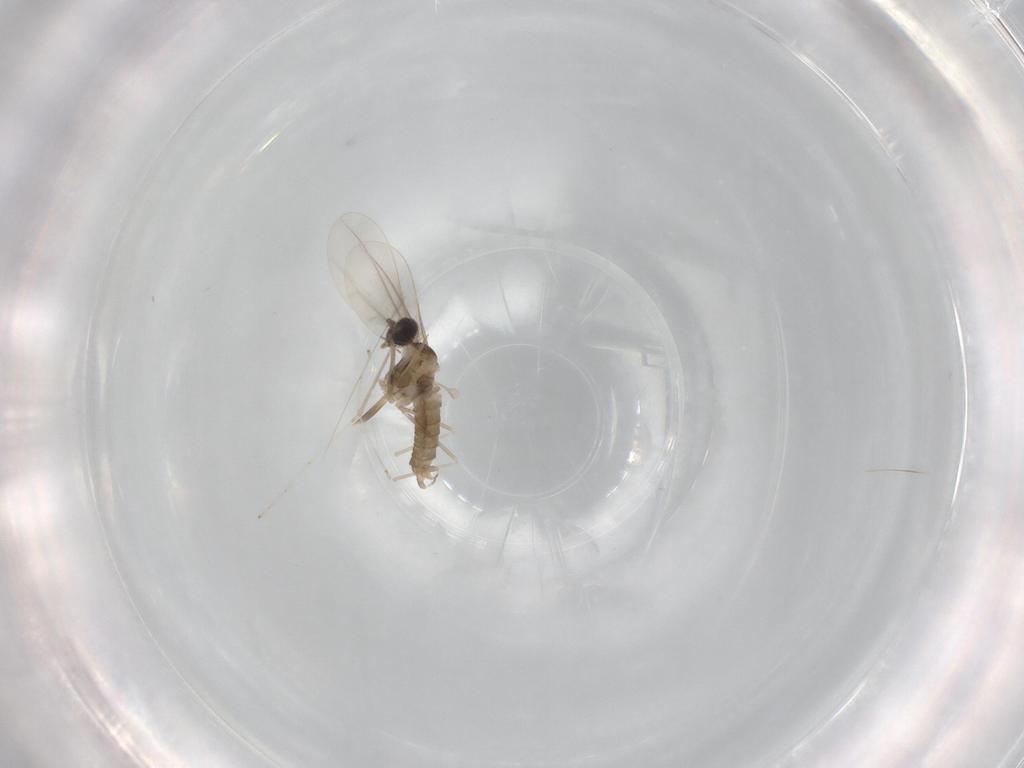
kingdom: Animalia
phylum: Arthropoda
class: Insecta
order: Diptera
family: Cecidomyiidae
